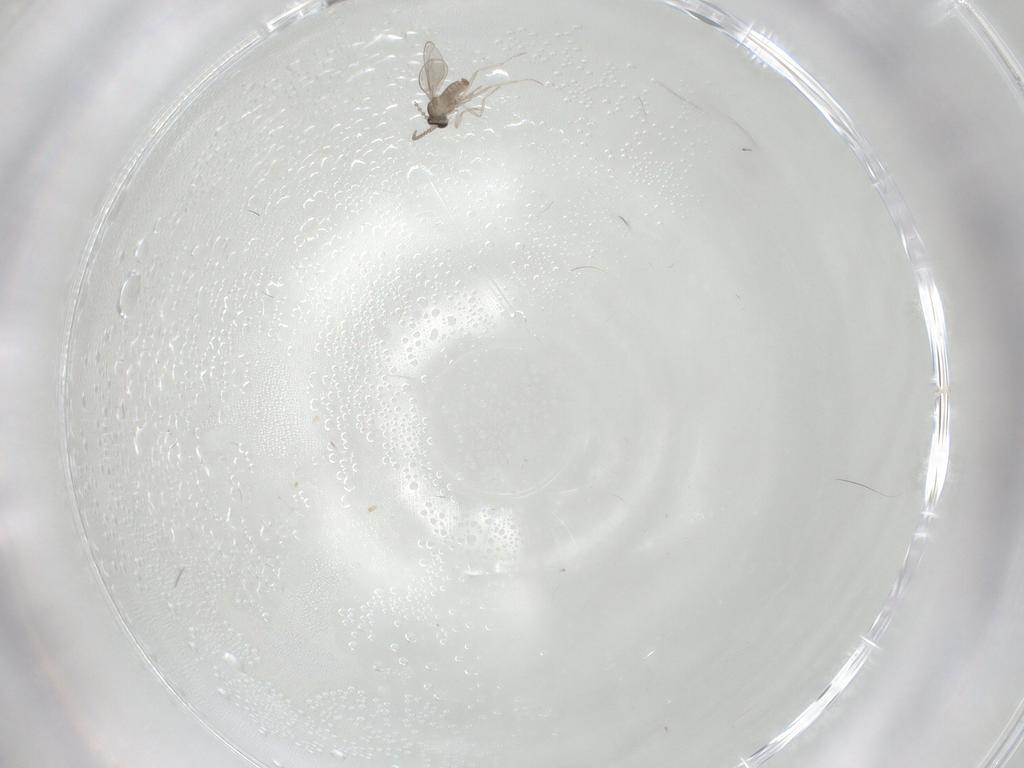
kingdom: Animalia
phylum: Arthropoda
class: Insecta
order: Diptera
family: Cecidomyiidae
